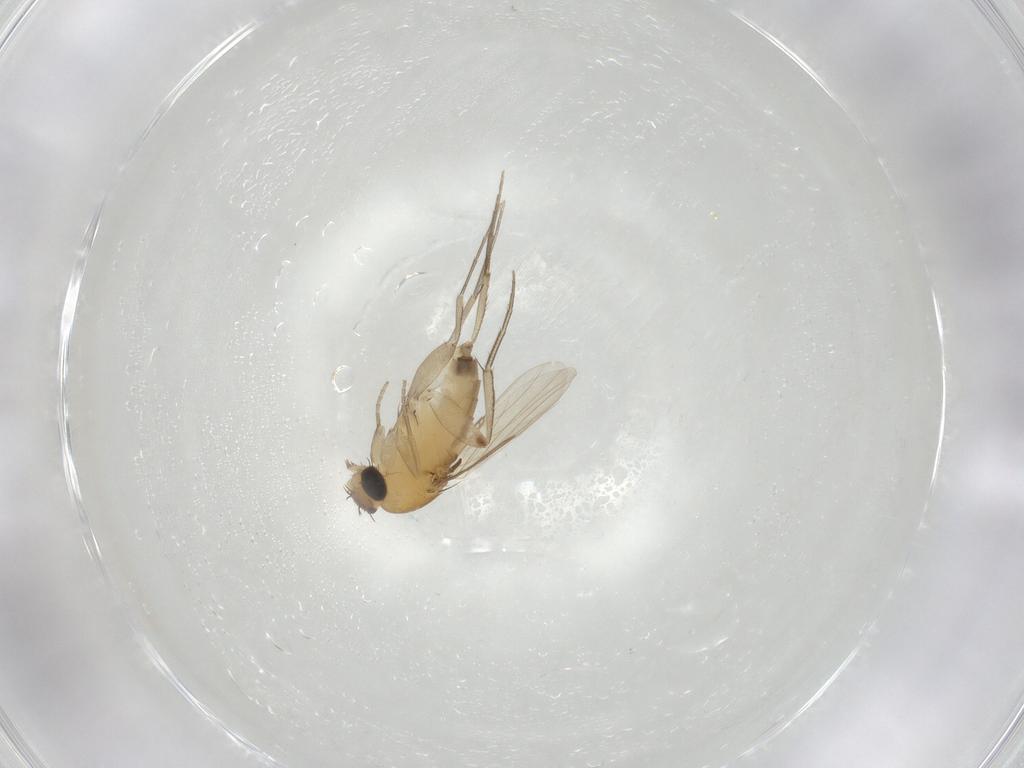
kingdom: Animalia
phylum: Arthropoda
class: Insecta
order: Diptera
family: Phoridae
